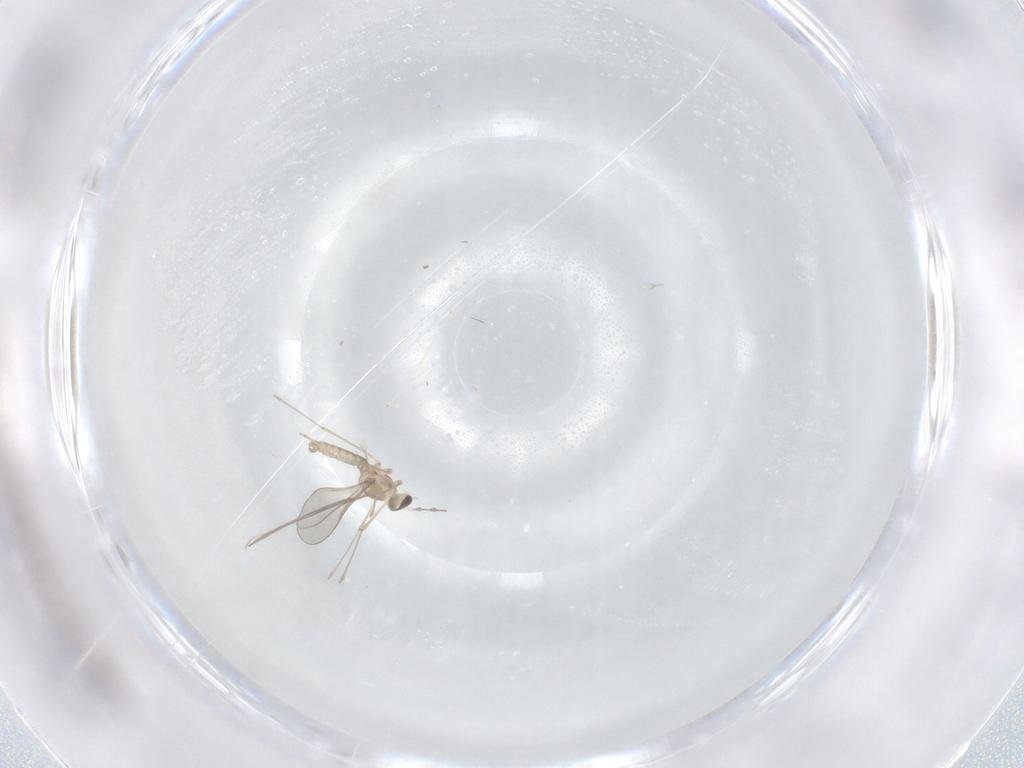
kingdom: Animalia
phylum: Arthropoda
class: Insecta
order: Diptera
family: Cecidomyiidae
